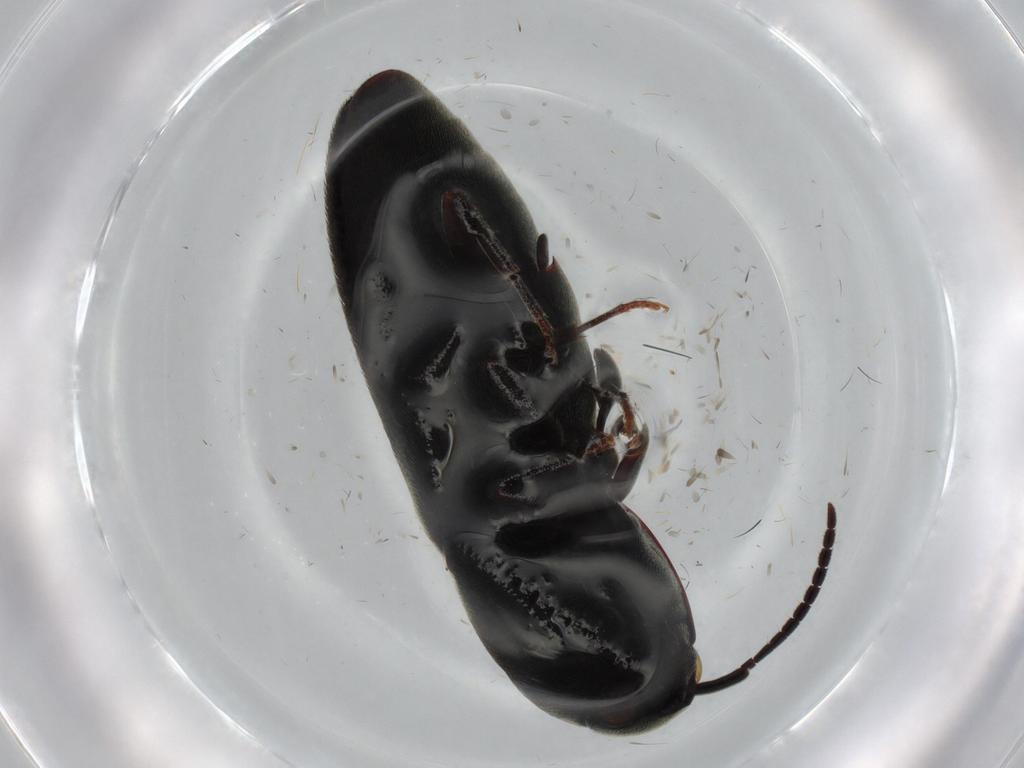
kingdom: Animalia
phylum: Arthropoda
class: Insecta
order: Coleoptera
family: Eucnemidae
